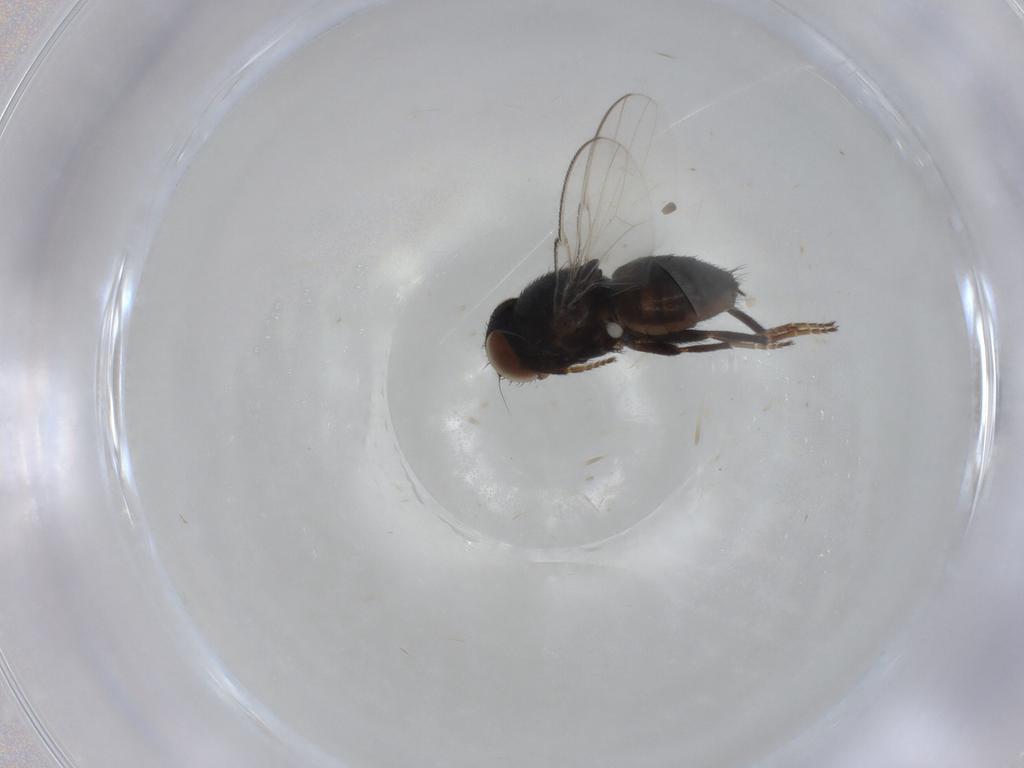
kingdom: Animalia
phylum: Arthropoda
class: Insecta
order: Diptera
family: Milichiidae
